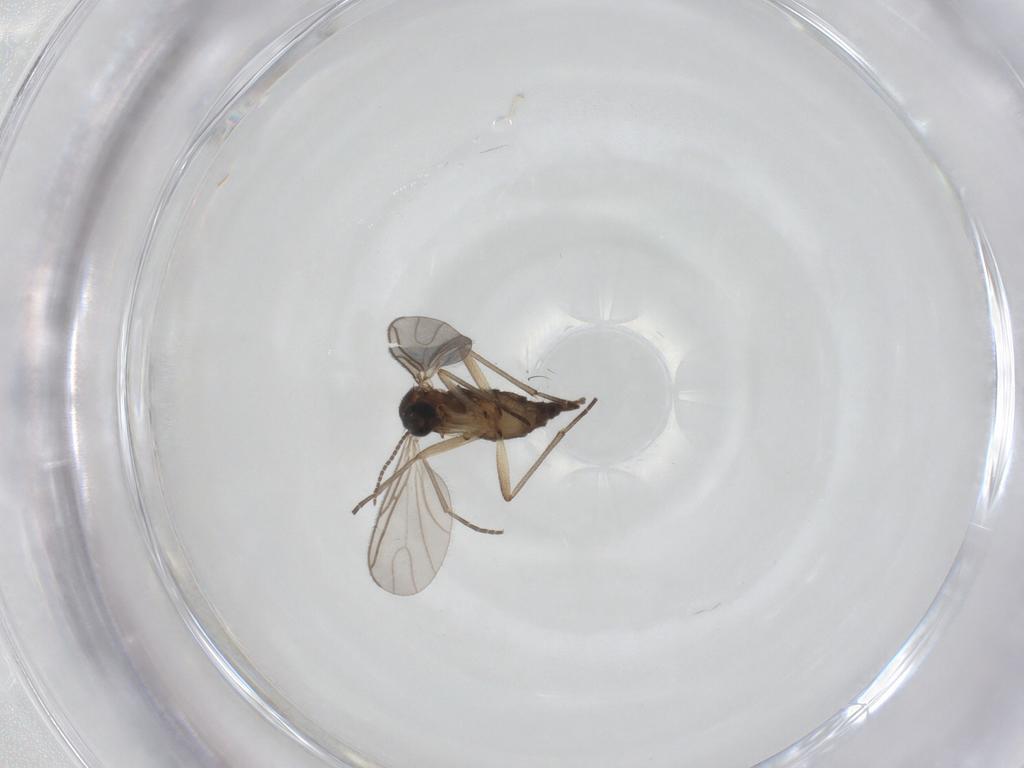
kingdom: Animalia
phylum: Arthropoda
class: Insecta
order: Diptera
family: Sciaridae
